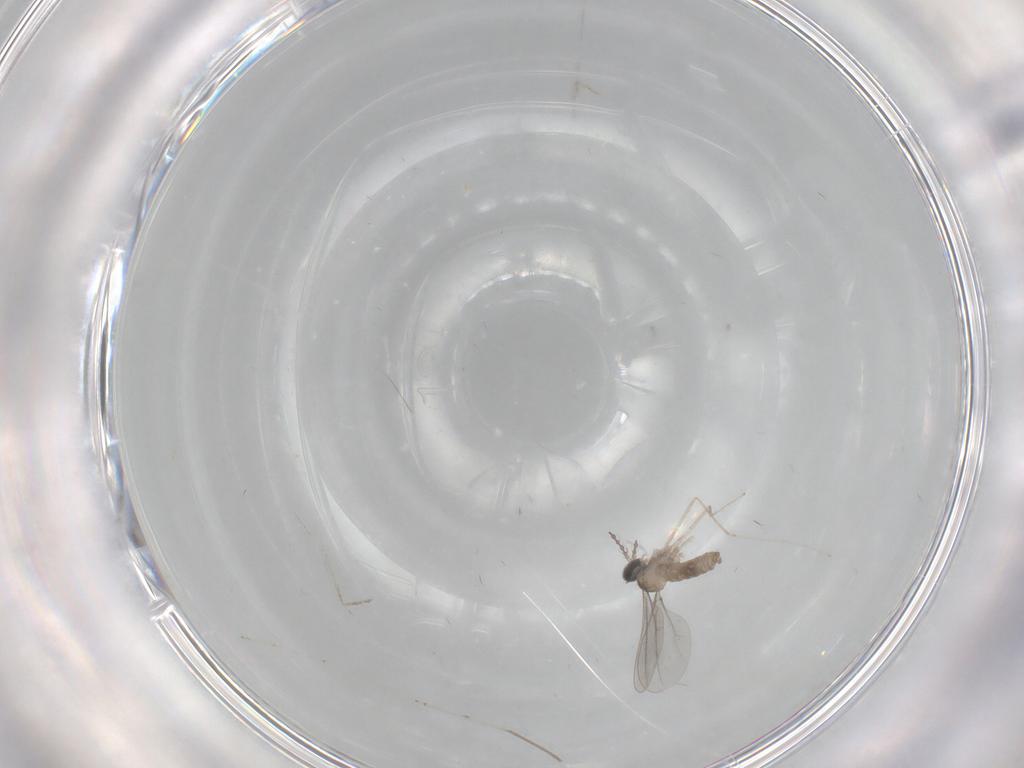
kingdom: Animalia
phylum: Arthropoda
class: Insecta
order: Diptera
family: Cecidomyiidae
